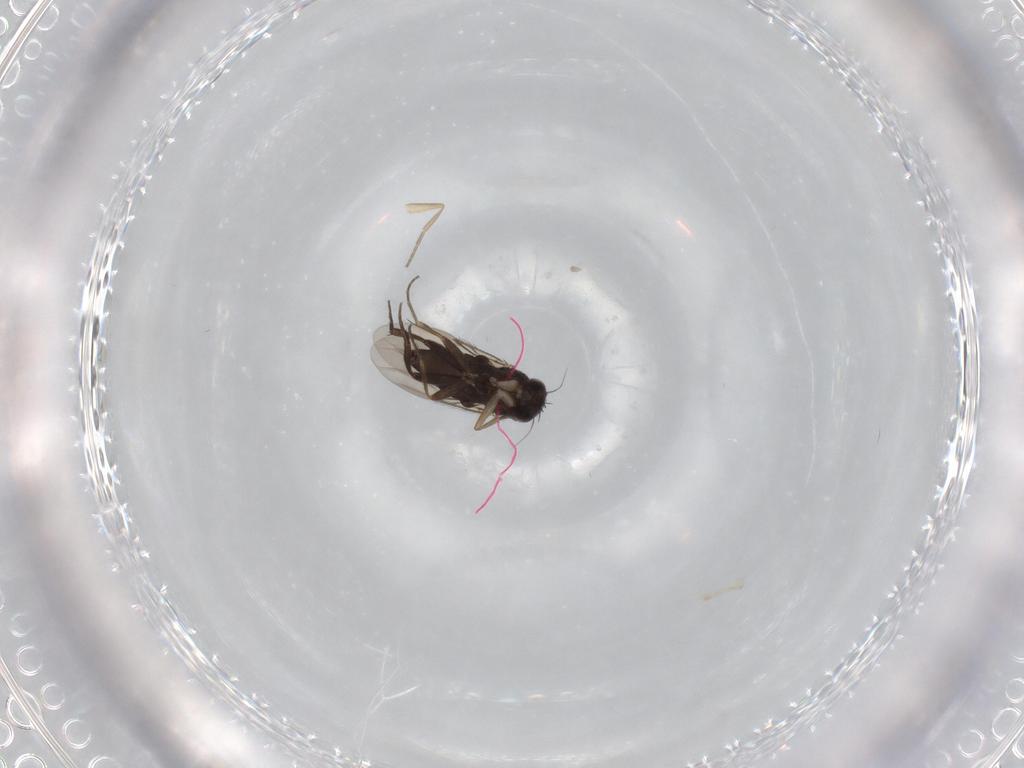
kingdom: Animalia
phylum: Arthropoda
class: Insecta
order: Diptera
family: Phoridae
